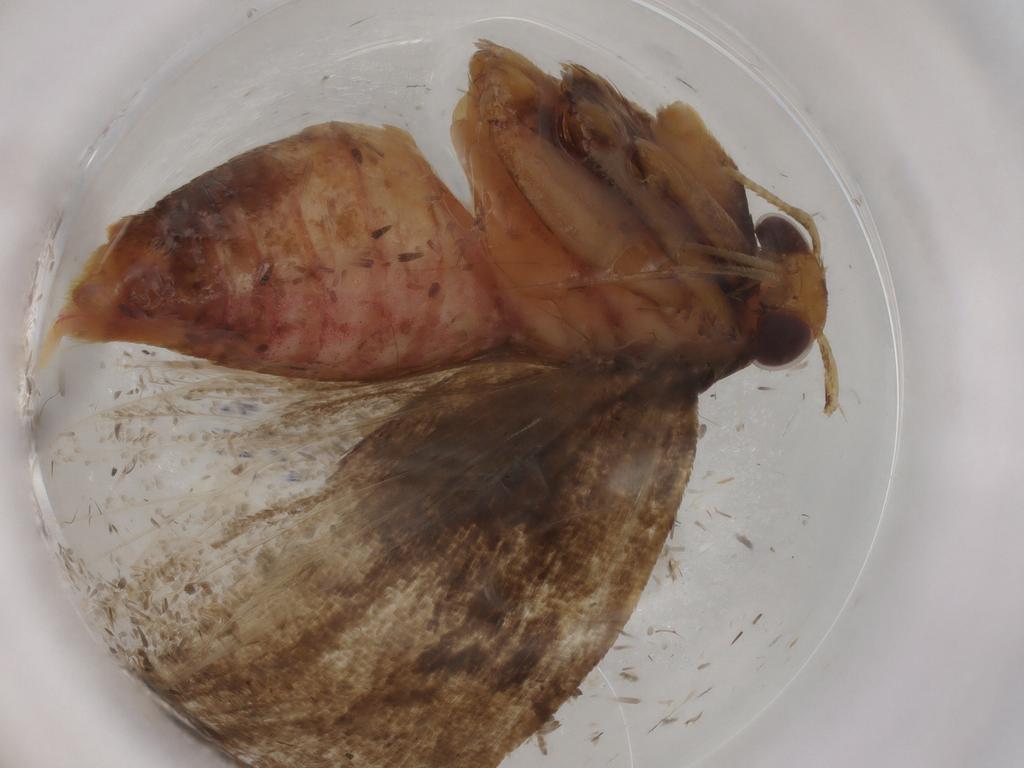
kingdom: Animalia
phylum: Arthropoda
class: Insecta
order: Lepidoptera
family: Lecithoceridae
